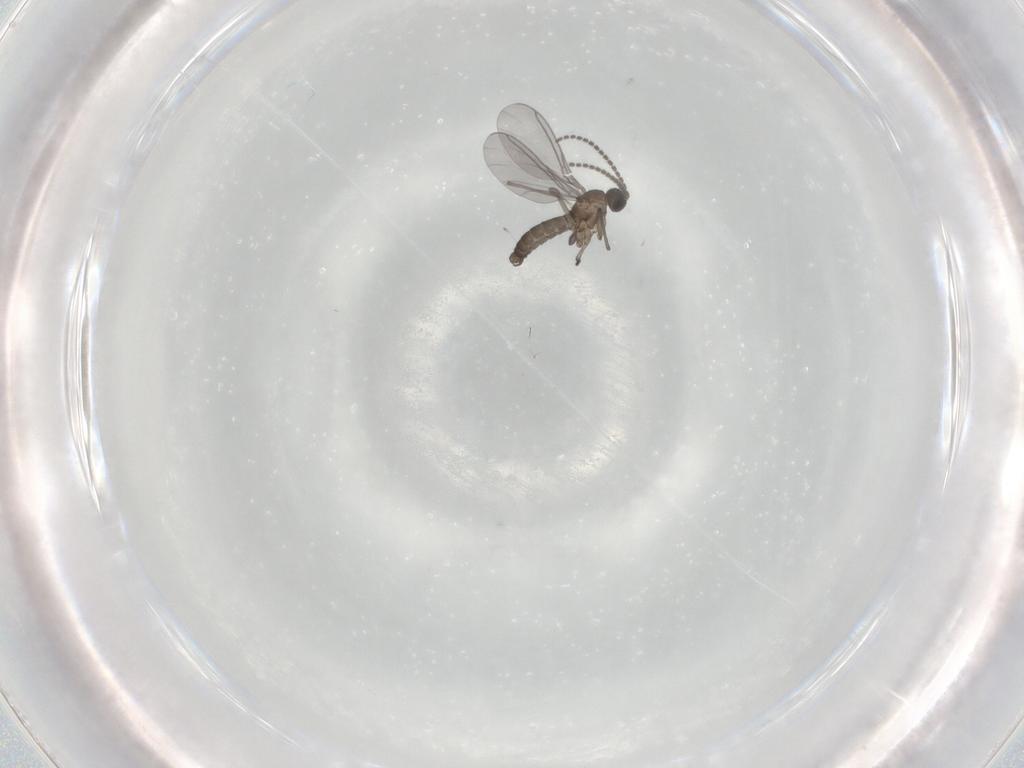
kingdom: Animalia
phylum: Arthropoda
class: Insecta
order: Diptera
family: Sciaridae
